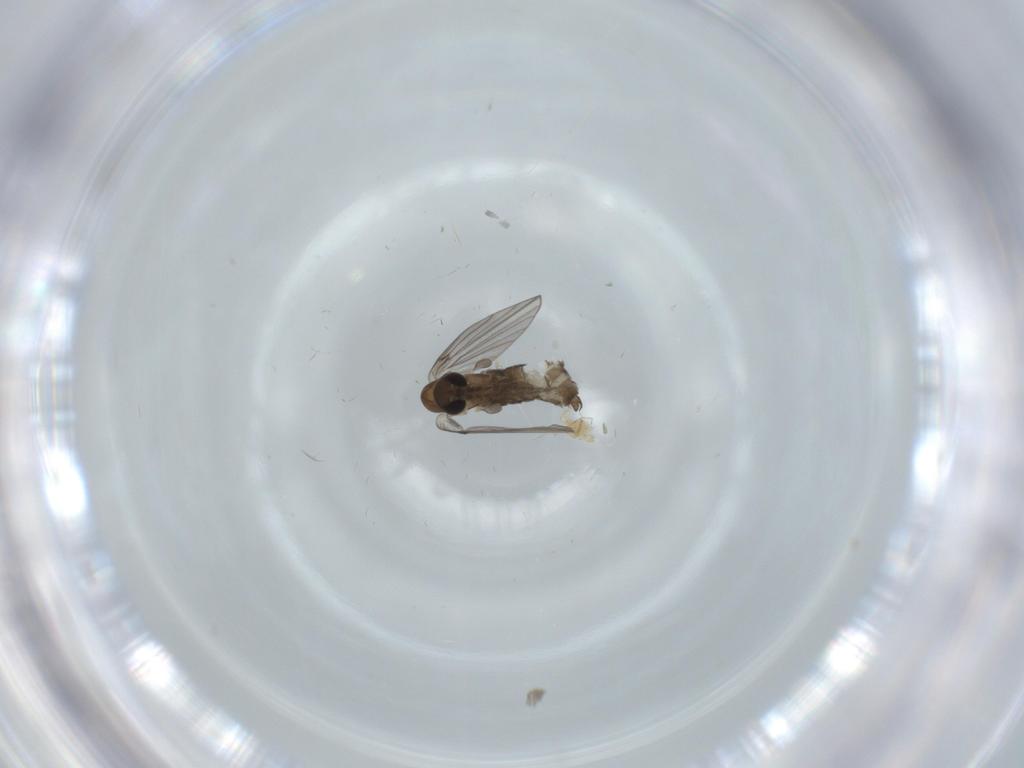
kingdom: Animalia
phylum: Arthropoda
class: Insecta
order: Diptera
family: Psychodidae
